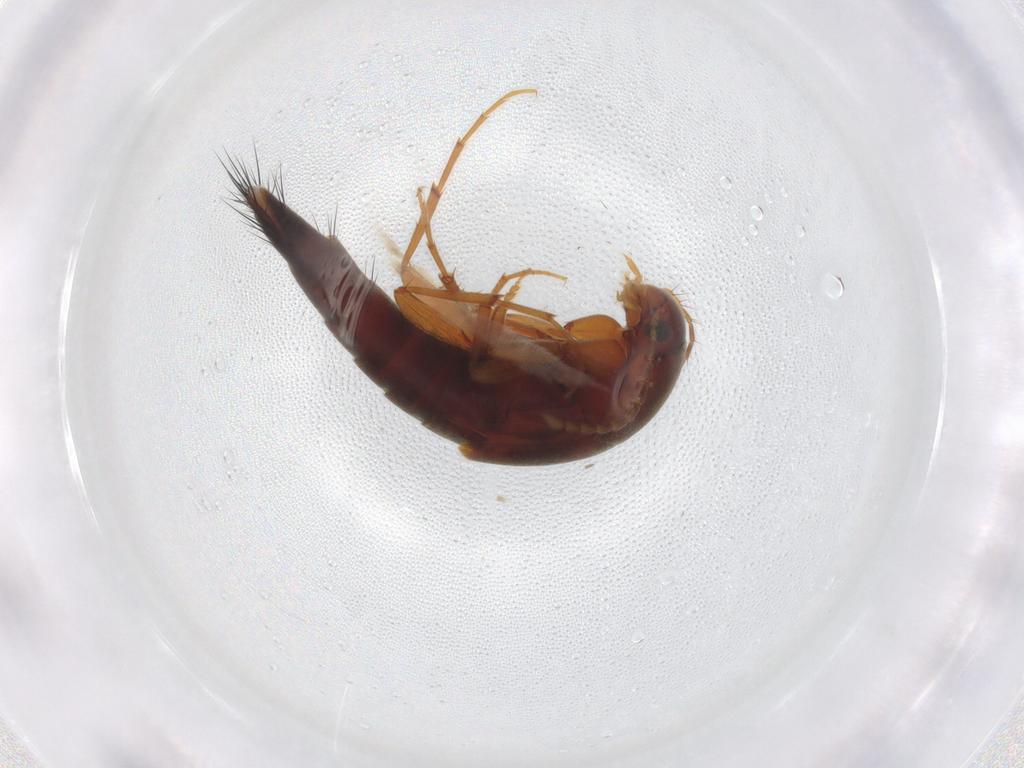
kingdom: Animalia
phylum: Arthropoda
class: Insecta
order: Coleoptera
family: Staphylinidae
